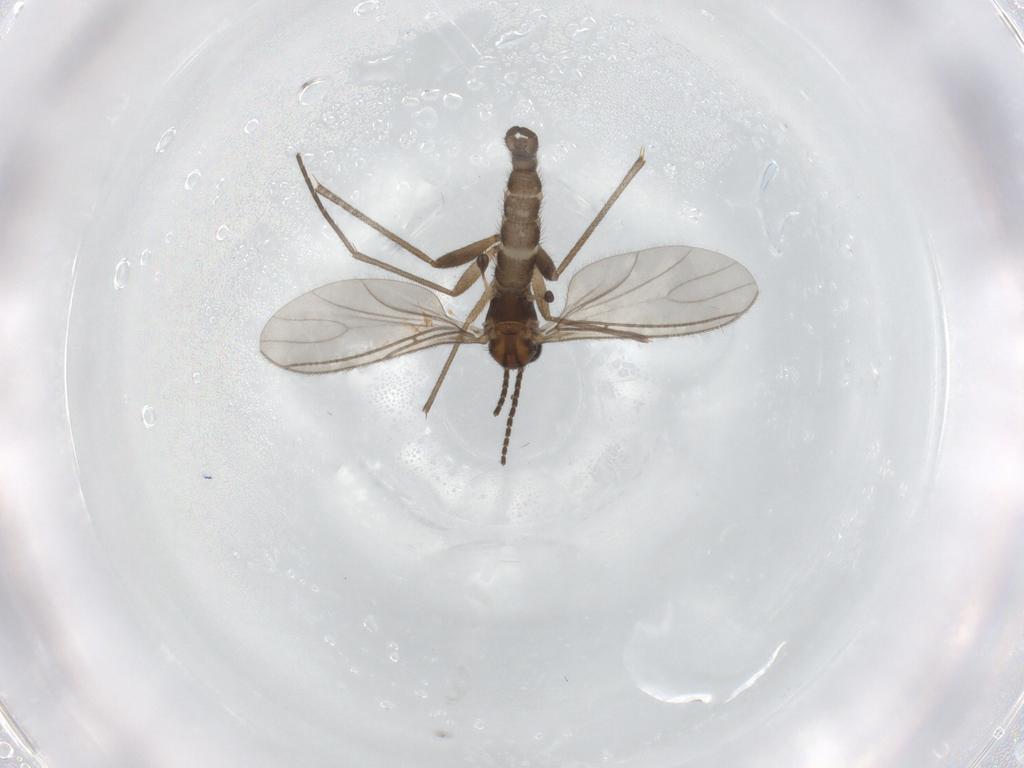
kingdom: Animalia
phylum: Arthropoda
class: Insecta
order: Diptera
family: Sciaridae
